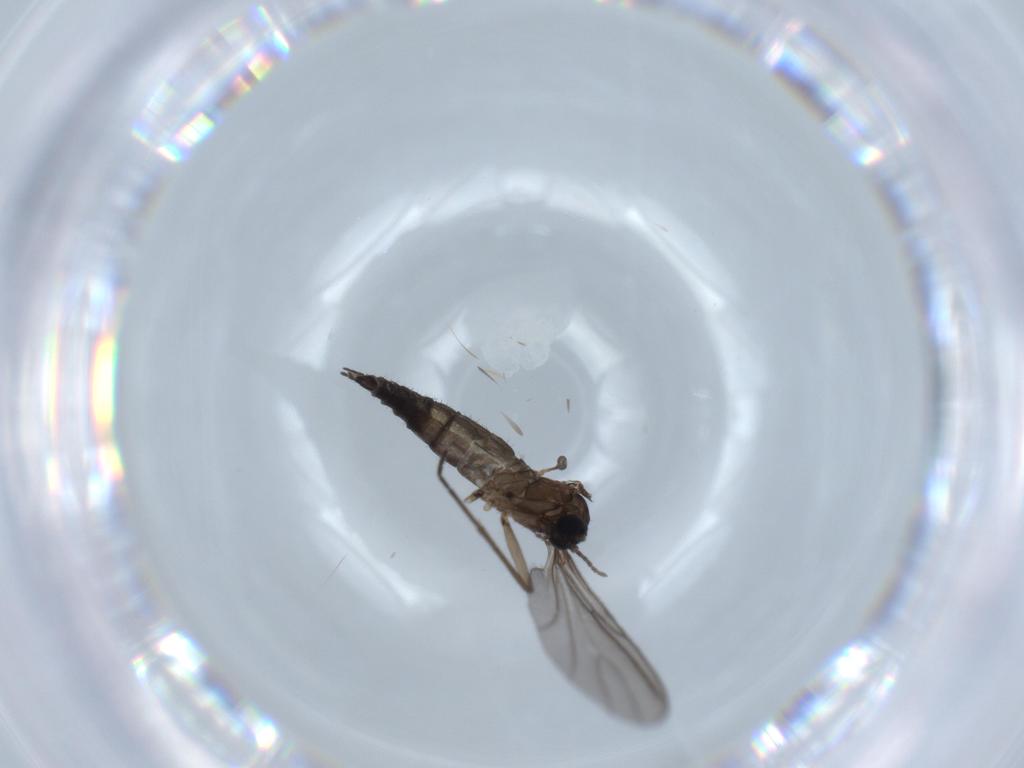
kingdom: Animalia
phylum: Arthropoda
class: Insecta
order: Diptera
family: Sciaridae
